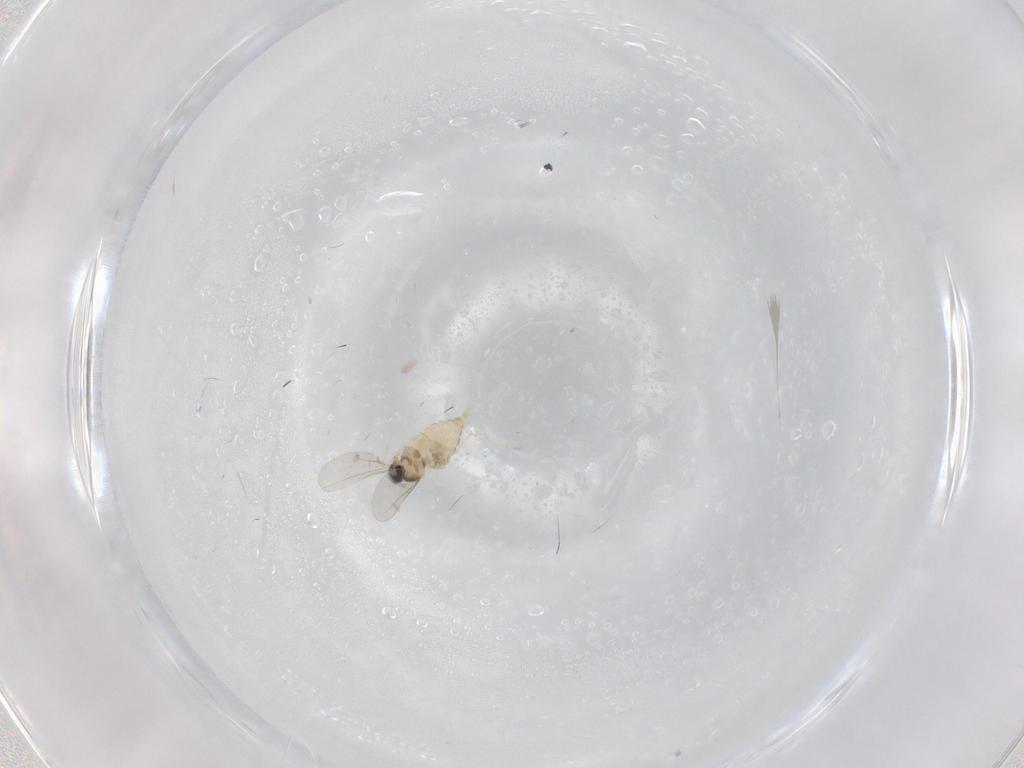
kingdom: Animalia
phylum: Arthropoda
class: Insecta
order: Diptera
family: Cecidomyiidae
